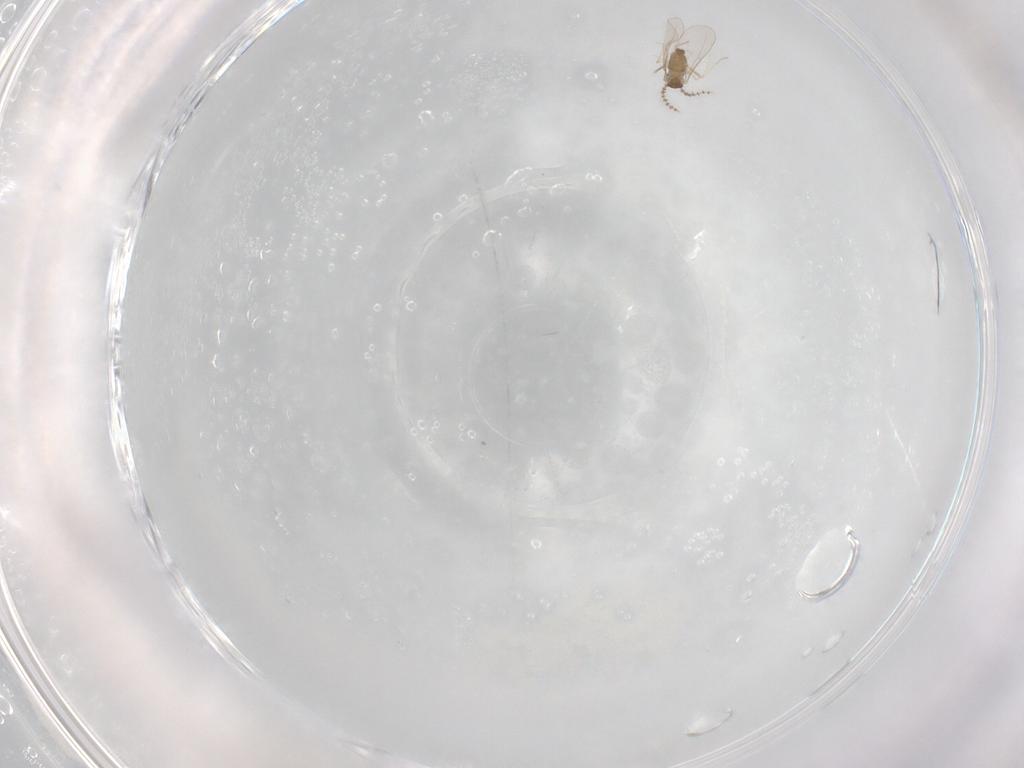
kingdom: Animalia
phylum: Arthropoda
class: Insecta
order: Diptera
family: Cecidomyiidae
